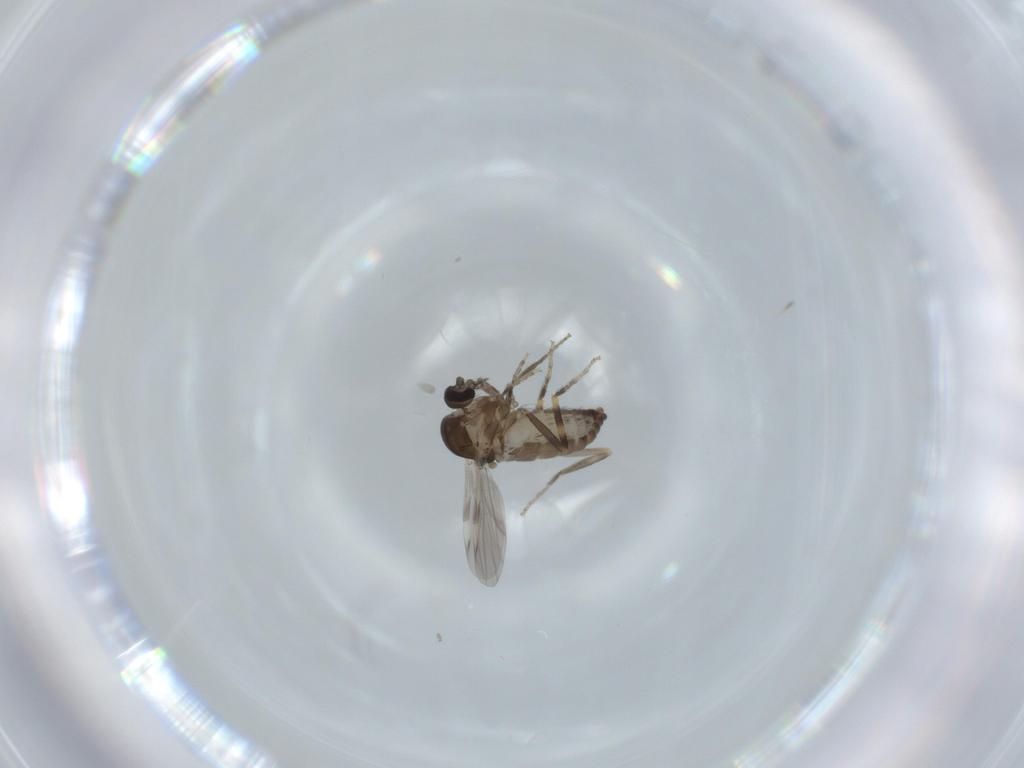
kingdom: Animalia
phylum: Arthropoda
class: Insecta
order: Diptera
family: Ceratopogonidae
